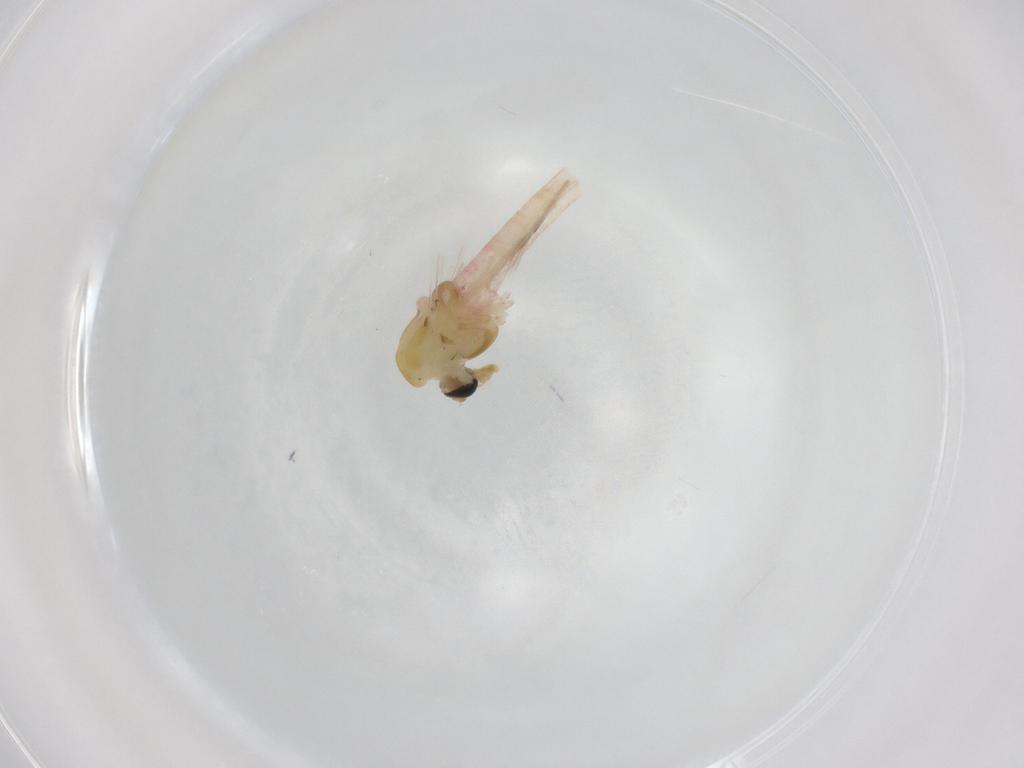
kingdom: Animalia
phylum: Arthropoda
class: Insecta
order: Diptera
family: Chironomidae
